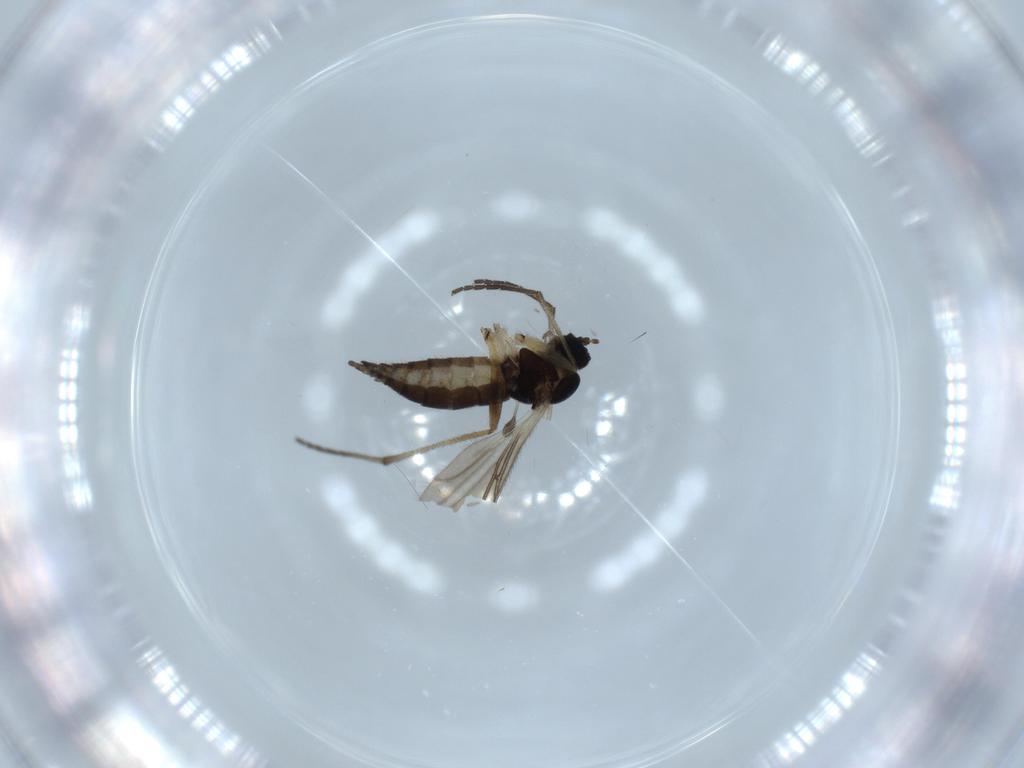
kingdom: Animalia
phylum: Arthropoda
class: Insecta
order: Diptera
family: Sciaridae
